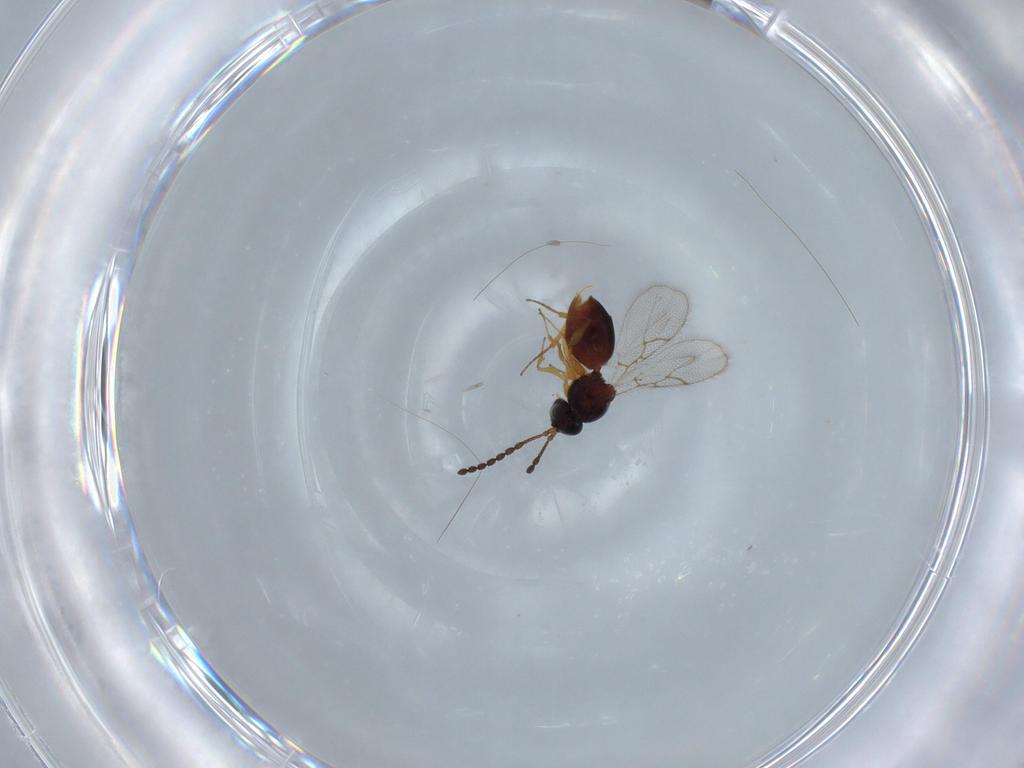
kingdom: Animalia
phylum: Arthropoda
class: Insecta
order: Hymenoptera
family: Figitidae
